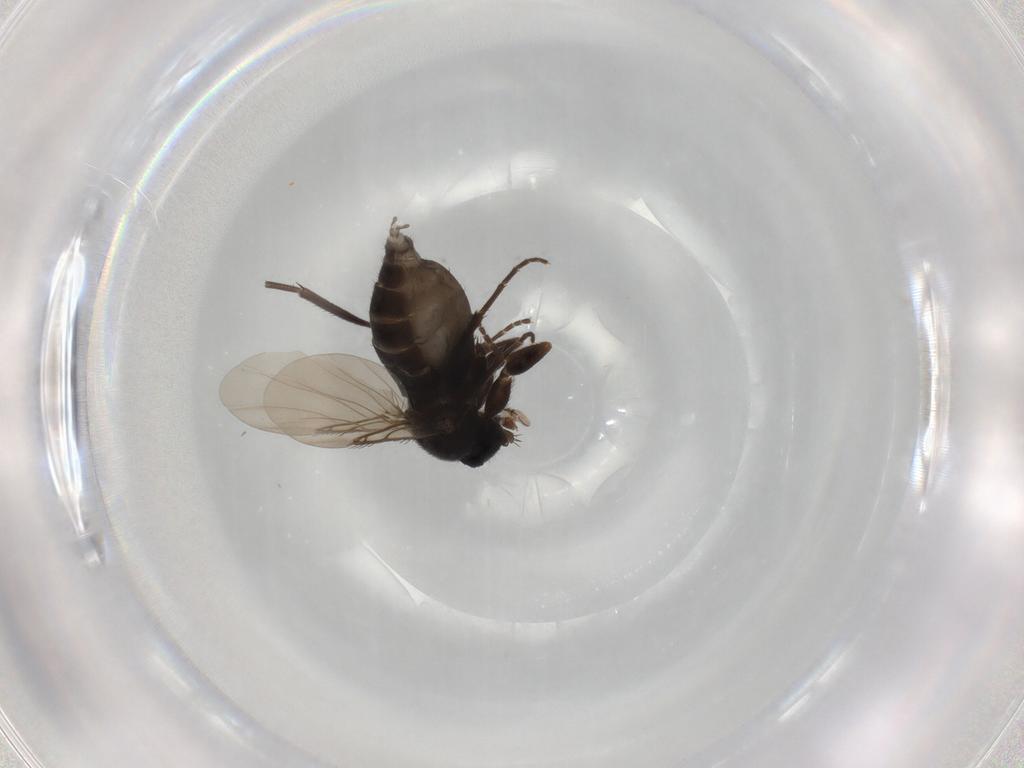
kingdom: Animalia
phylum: Arthropoda
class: Insecta
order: Diptera
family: Phoridae
